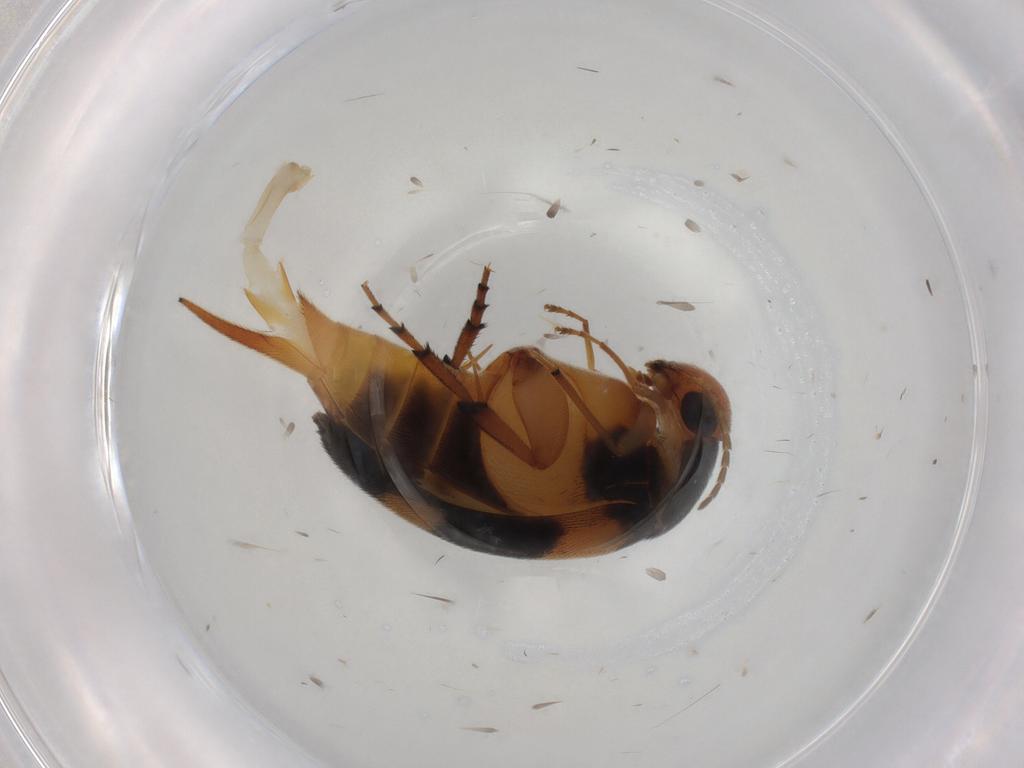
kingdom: Animalia
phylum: Arthropoda
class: Insecta
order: Coleoptera
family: Mordellidae
